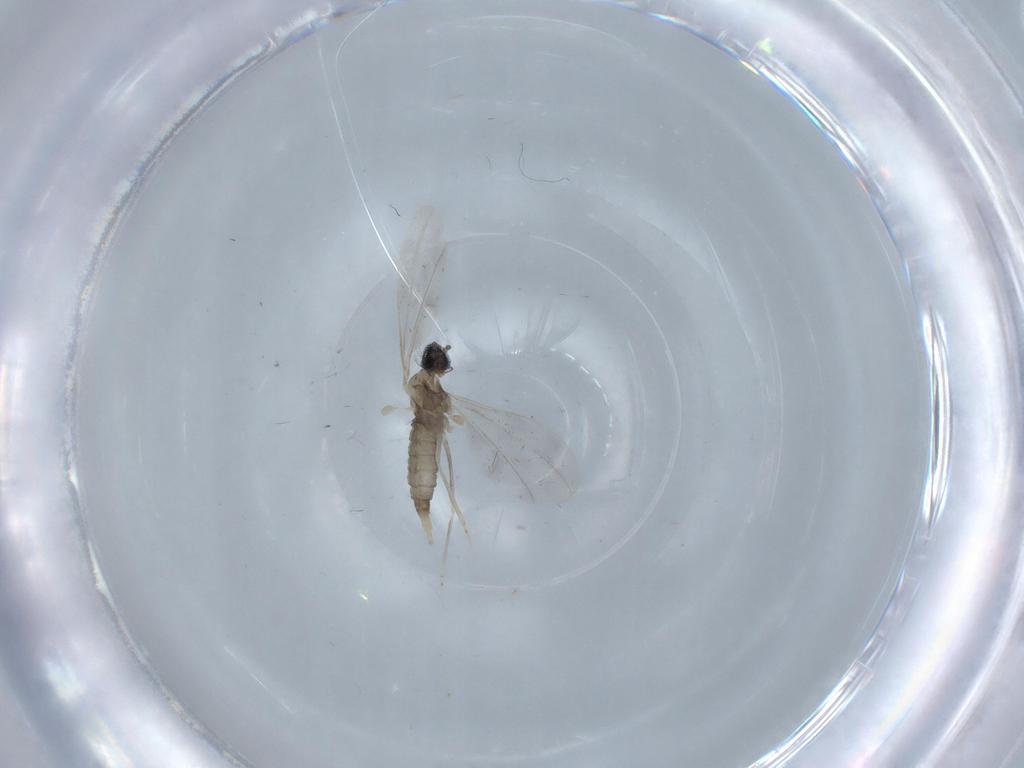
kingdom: Animalia
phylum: Arthropoda
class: Insecta
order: Diptera
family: Cecidomyiidae
